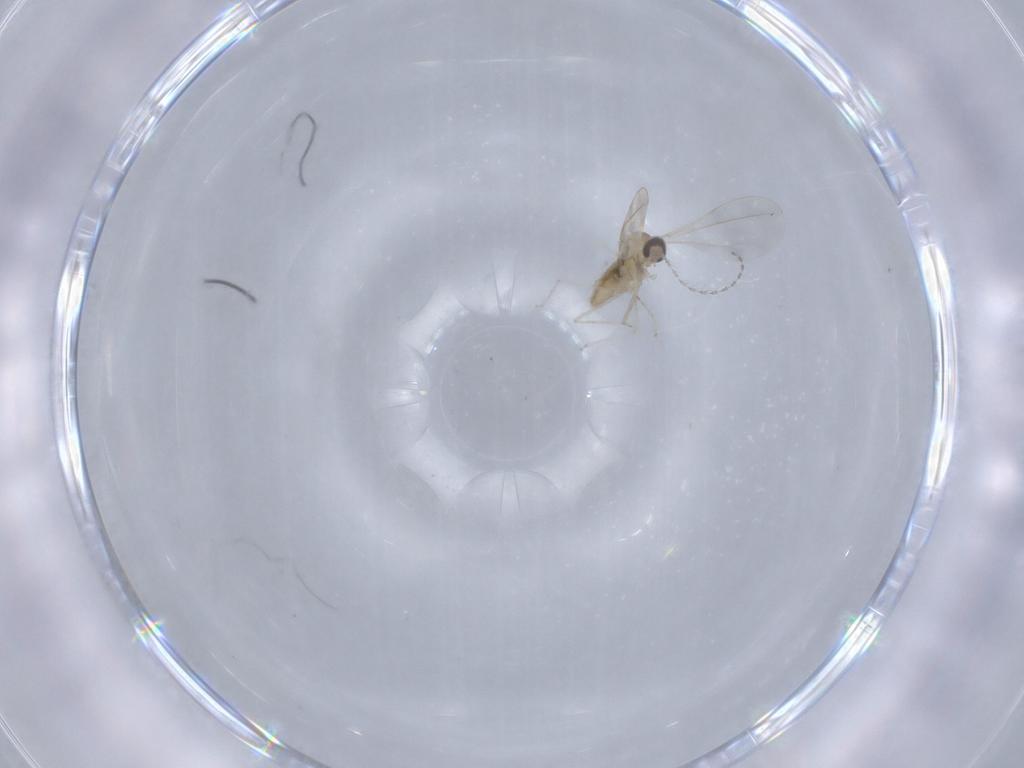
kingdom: Animalia
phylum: Arthropoda
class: Insecta
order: Diptera
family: Cecidomyiidae
